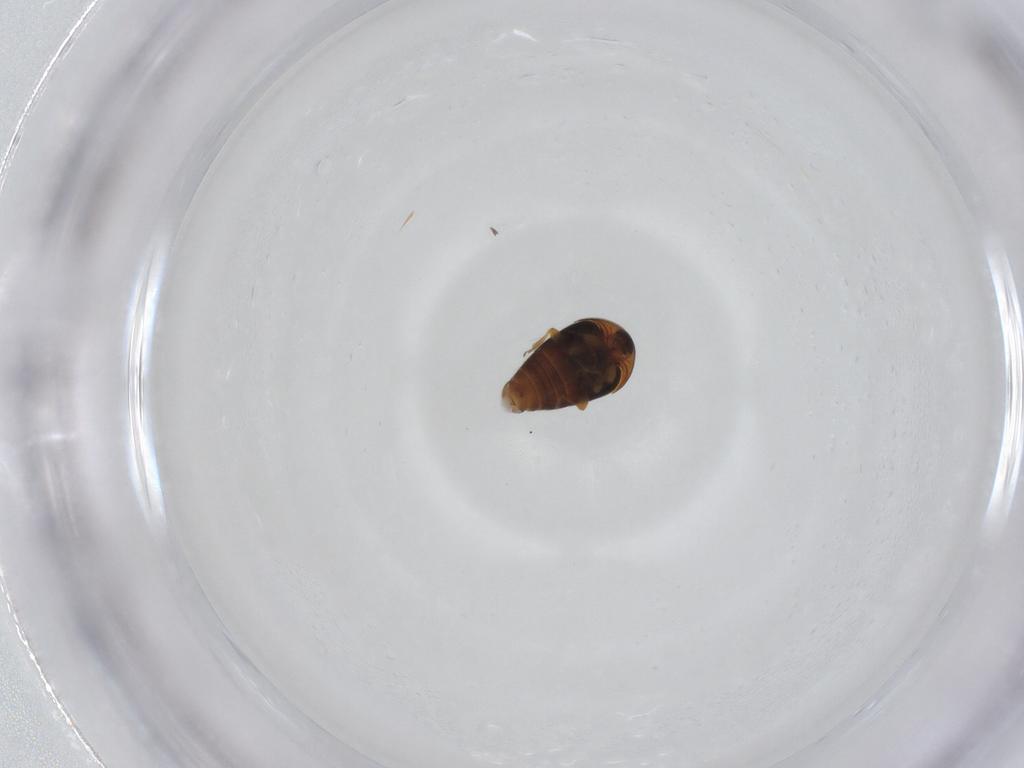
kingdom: Animalia
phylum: Arthropoda
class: Insecta
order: Coleoptera
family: Corylophidae
